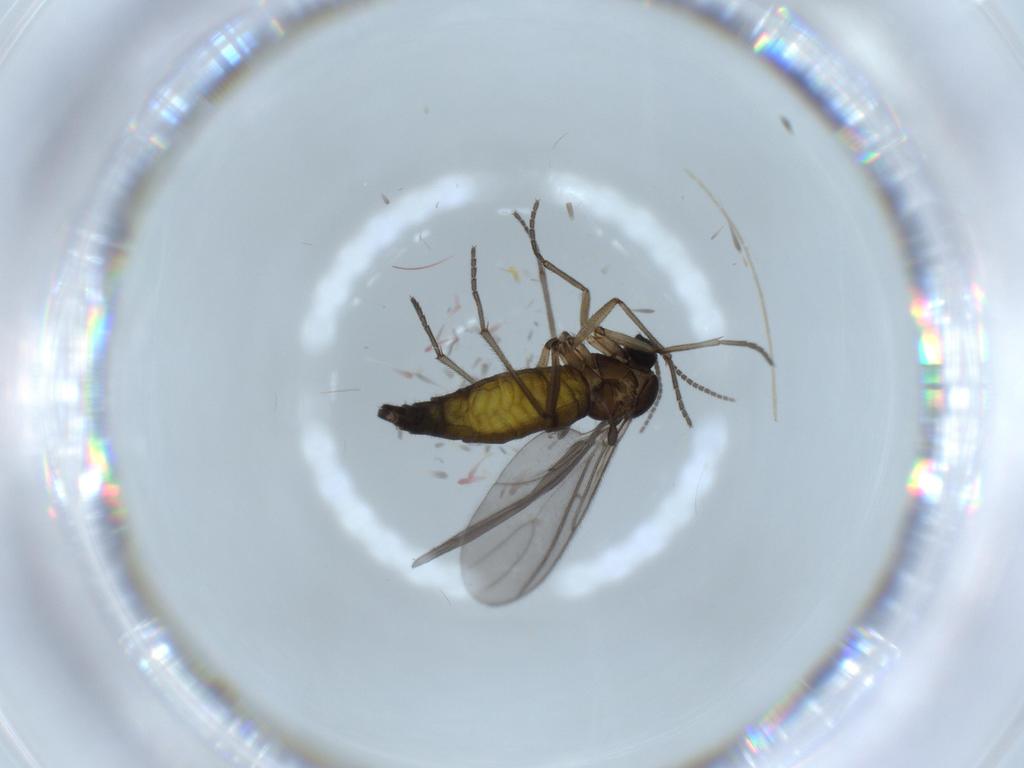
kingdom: Animalia
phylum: Arthropoda
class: Insecta
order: Diptera
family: Sciaridae
